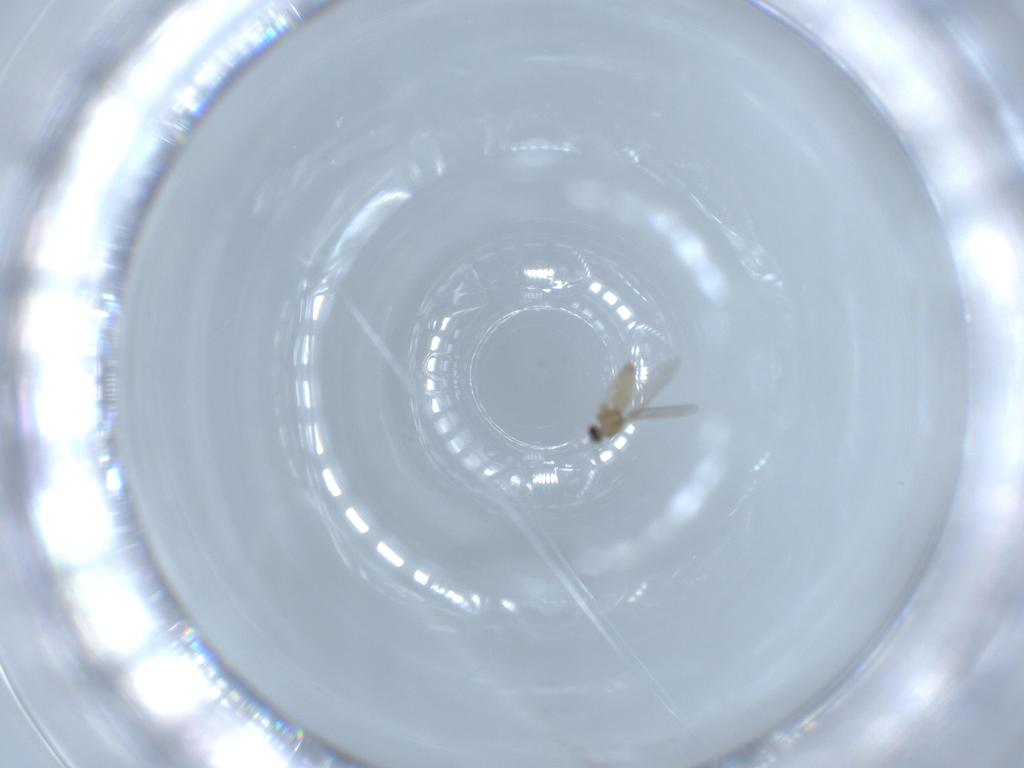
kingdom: Animalia
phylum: Arthropoda
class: Insecta
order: Diptera
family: Cecidomyiidae
